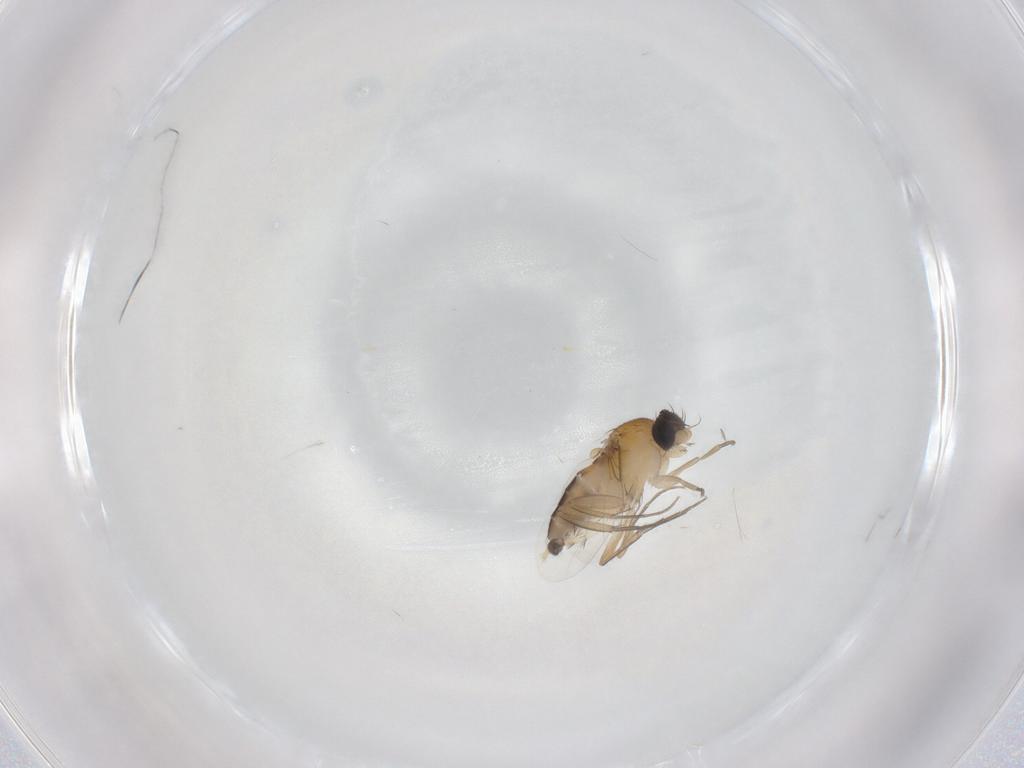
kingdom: Animalia
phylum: Arthropoda
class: Insecta
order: Diptera
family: Phoridae
